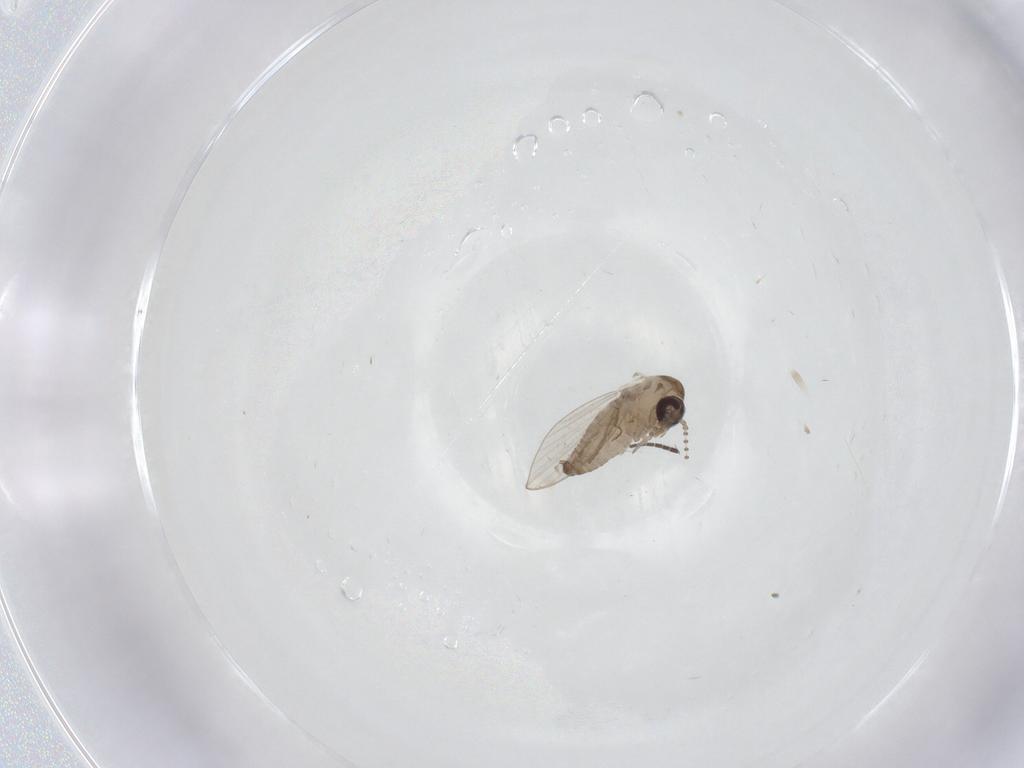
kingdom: Animalia
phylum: Arthropoda
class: Insecta
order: Diptera
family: Psychodidae
